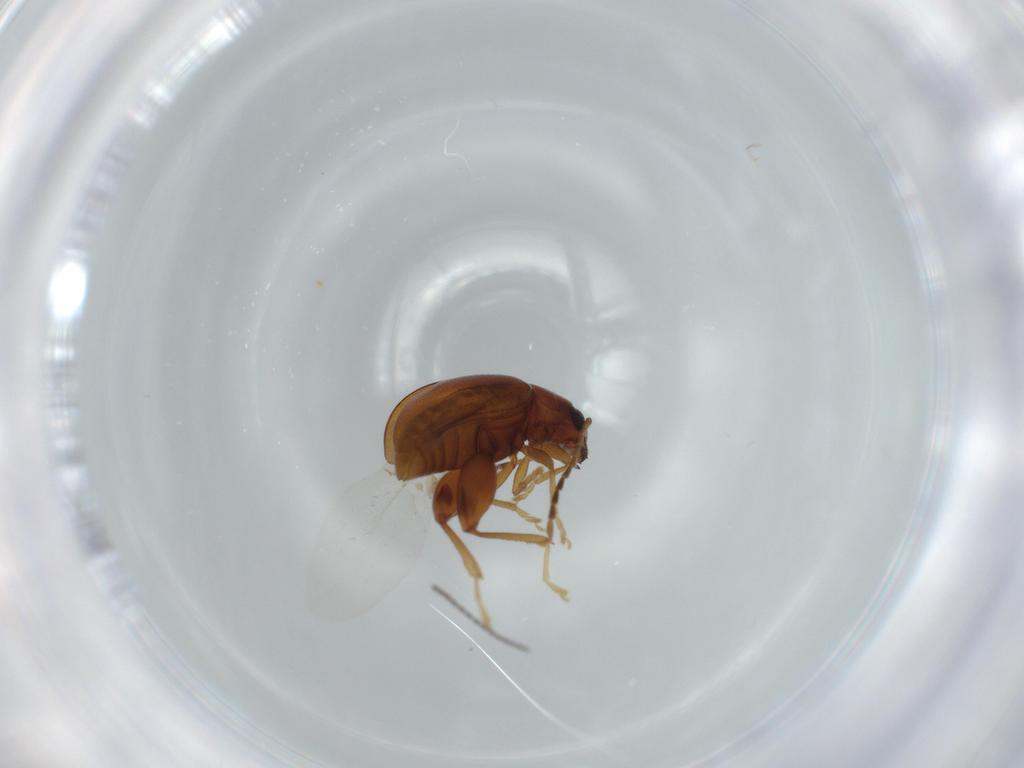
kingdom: Animalia
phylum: Arthropoda
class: Insecta
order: Coleoptera
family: Chrysomelidae
